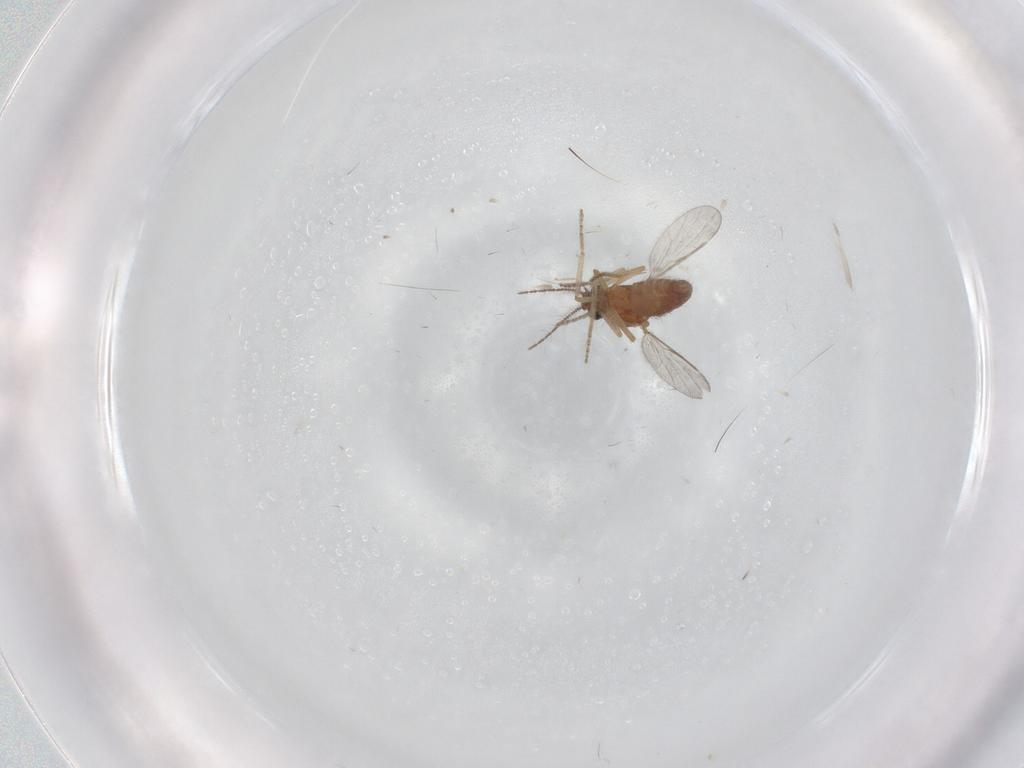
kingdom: Animalia
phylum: Arthropoda
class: Insecta
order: Diptera
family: Ceratopogonidae
